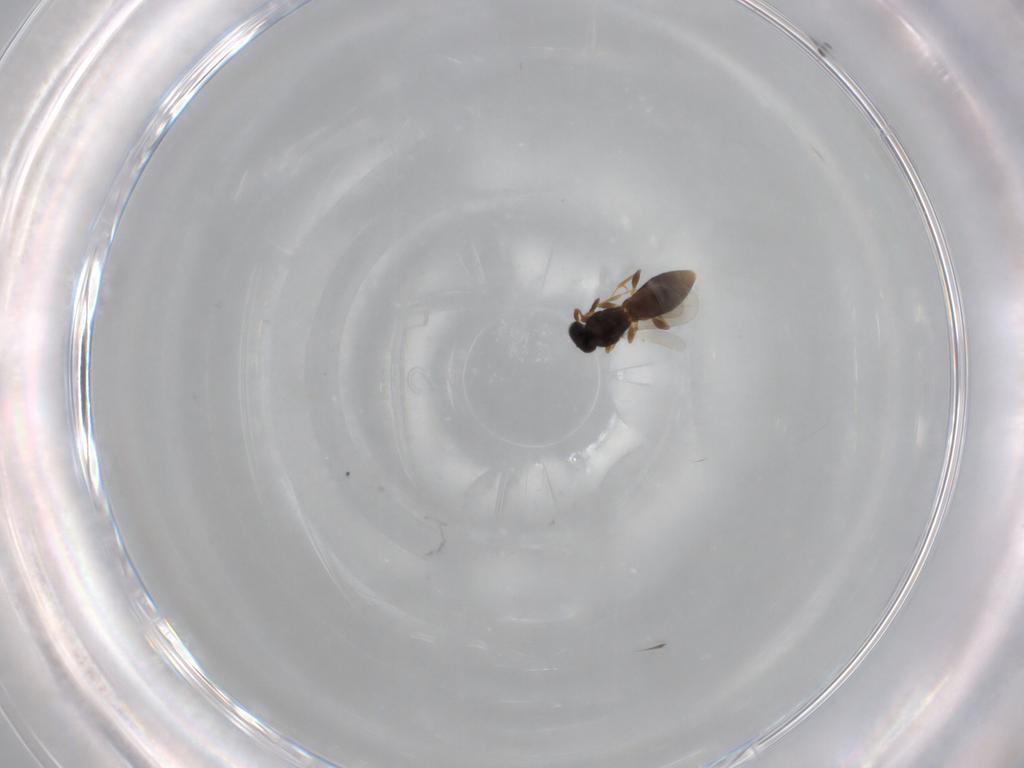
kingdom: Animalia
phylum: Arthropoda
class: Insecta
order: Hymenoptera
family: Platygastridae
